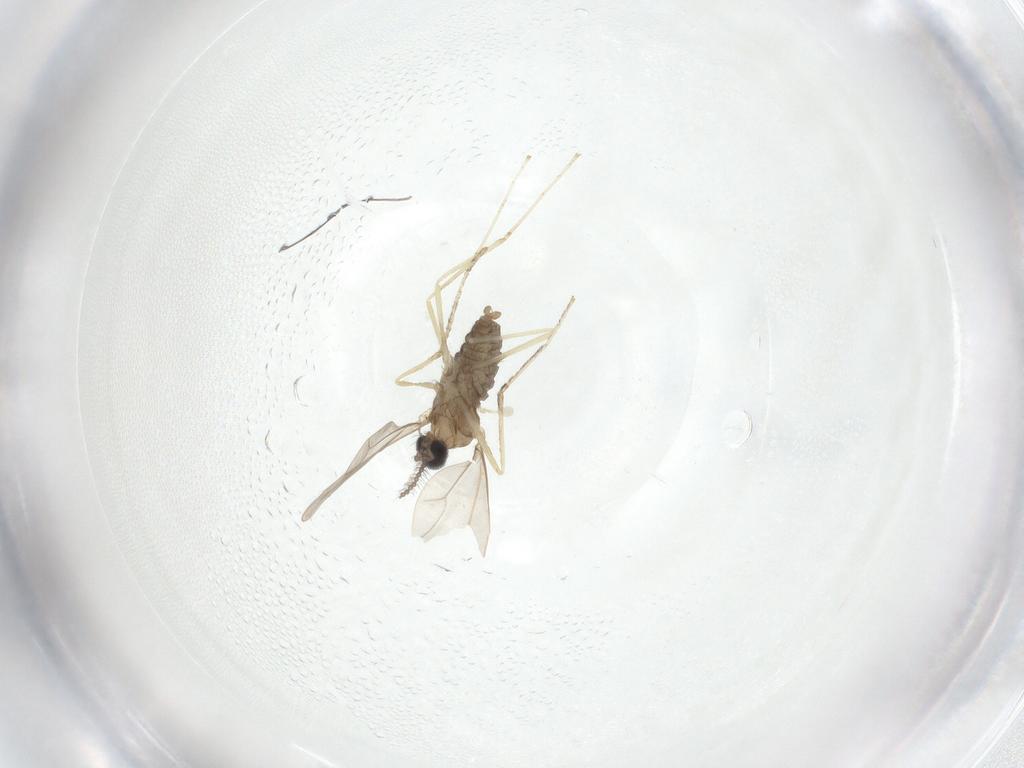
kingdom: Animalia
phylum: Arthropoda
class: Insecta
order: Diptera
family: Cecidomyiidae
